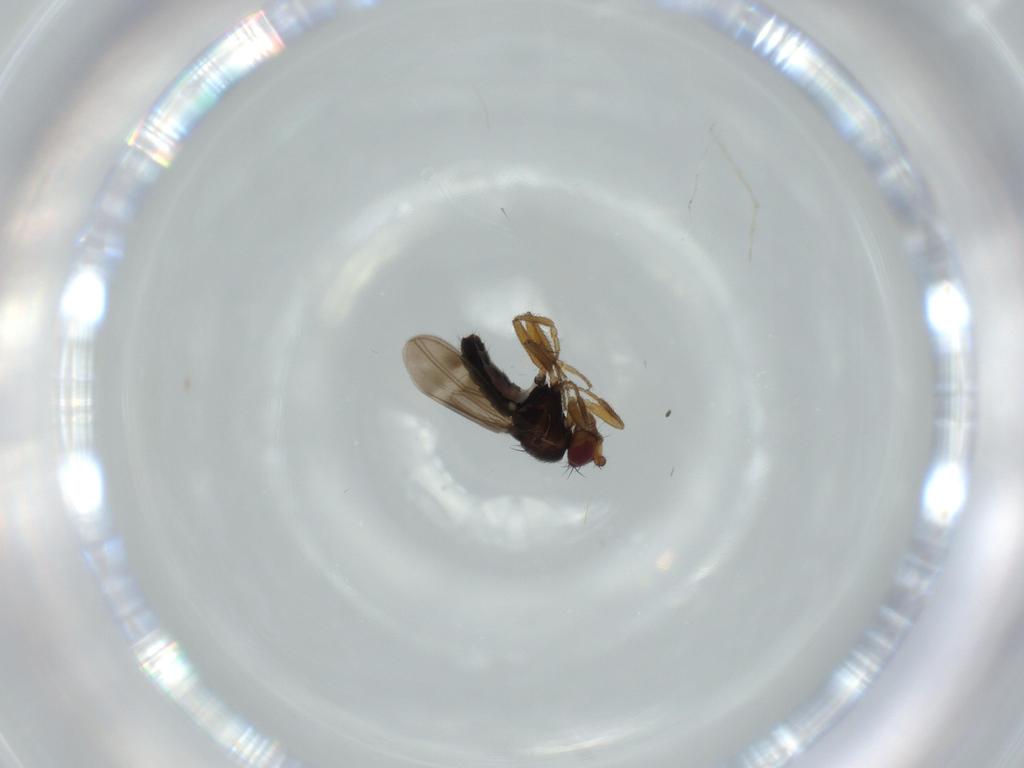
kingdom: Animalia
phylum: Arthropoda
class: Insecta
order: Diptera
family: Sphaeroceridae
